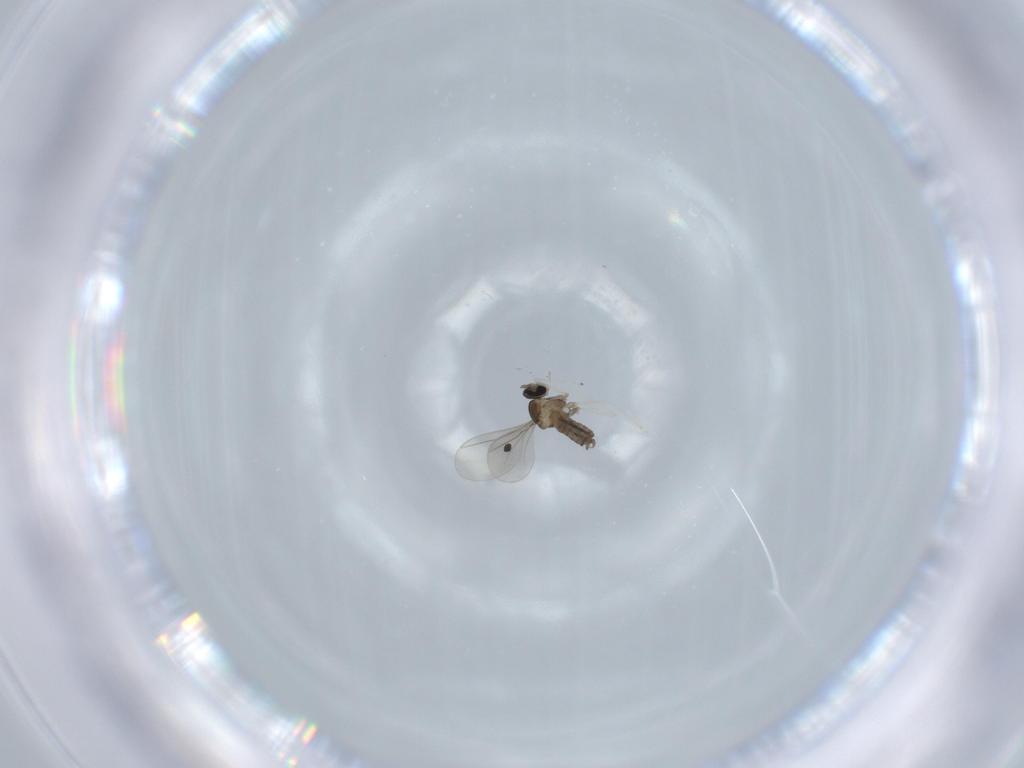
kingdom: Animalia
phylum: Arthropoda
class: Insecta
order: Diptera
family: Cecidomyiidae
